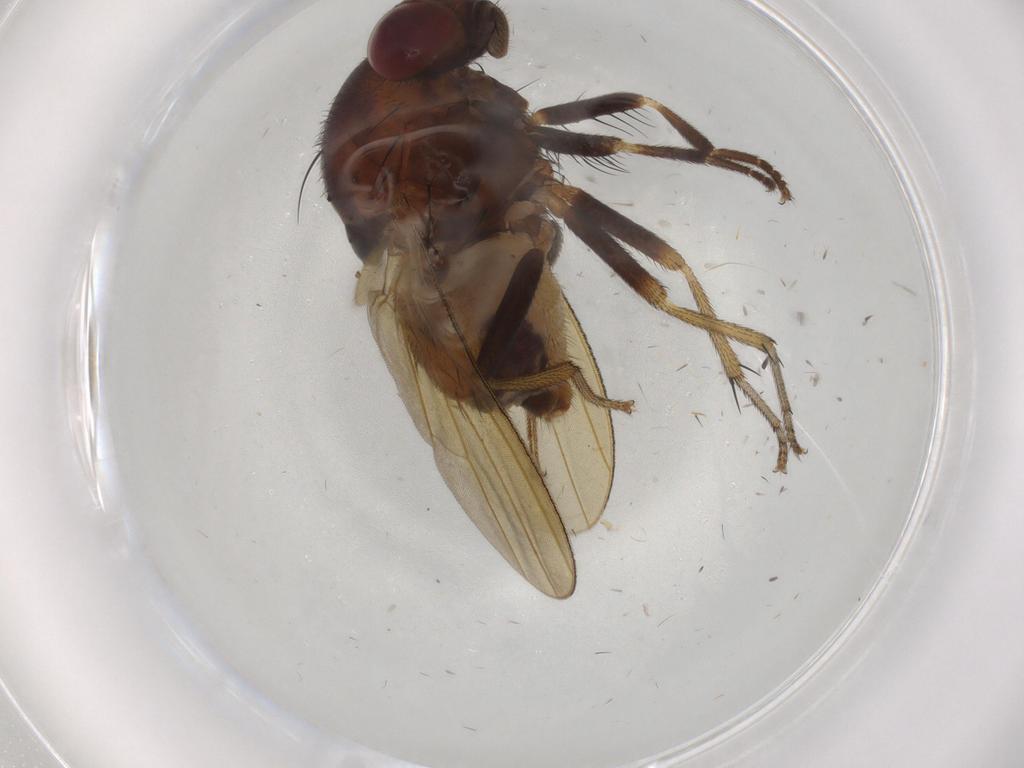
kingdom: Animalia
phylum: Arthropoda
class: Insecta
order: Diptera
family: Lauxaniidae
